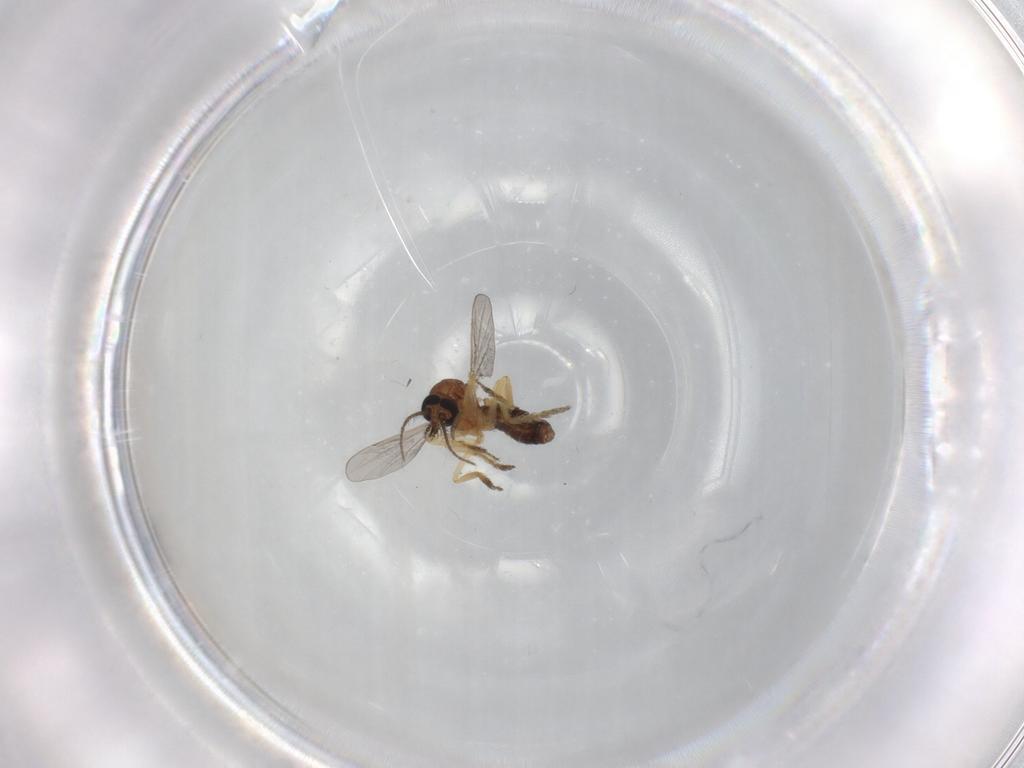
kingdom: Animalia
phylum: Arthropoda
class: Insecta
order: Diptera
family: Ceratopogonidae
